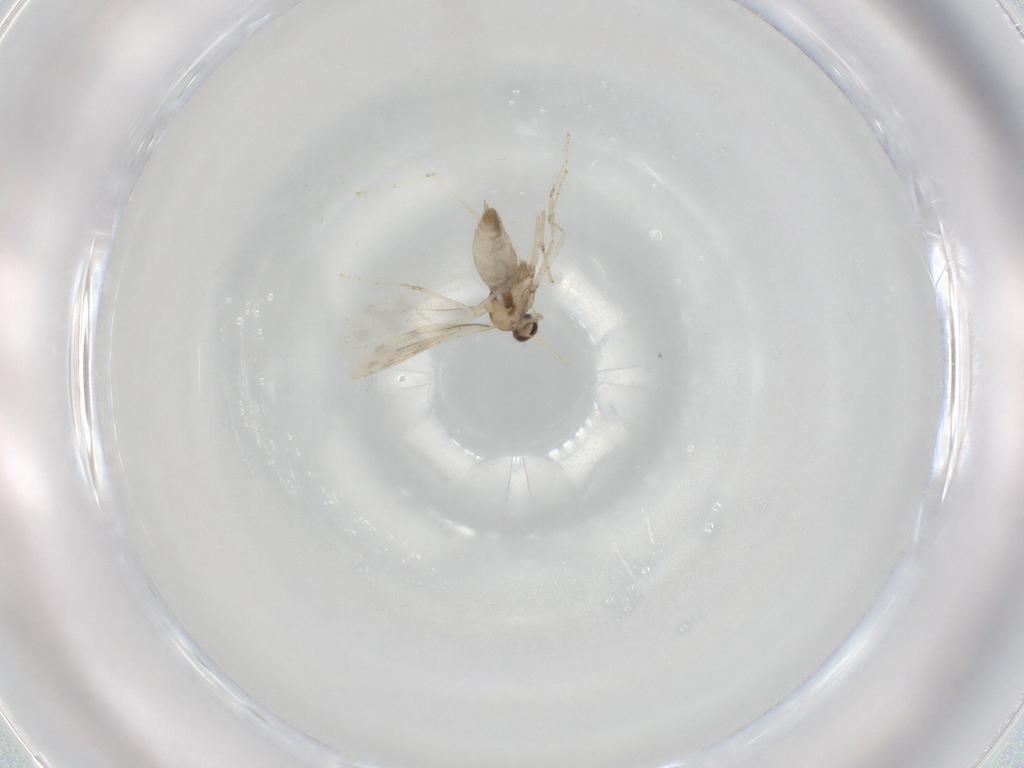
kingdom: Animalia
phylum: Arthropoda
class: Insecta
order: Diptera
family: Cecidomyiidae
